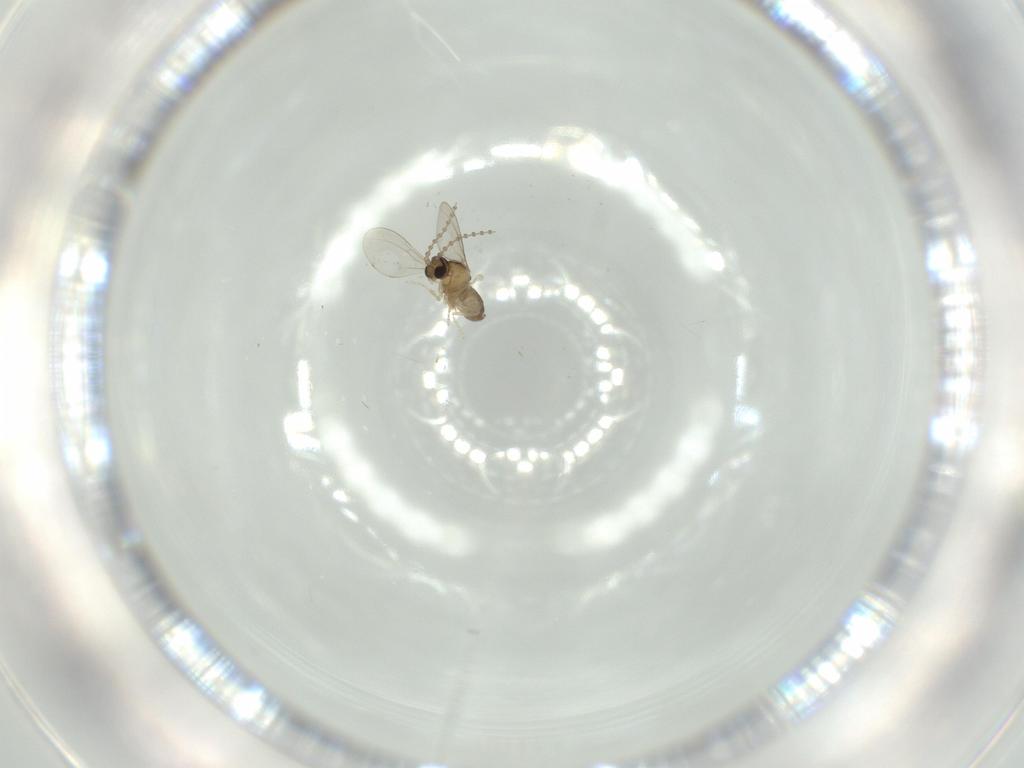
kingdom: Animalia
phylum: Arthropoda
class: Insecta
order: Diptera
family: Cecidomyiidae
